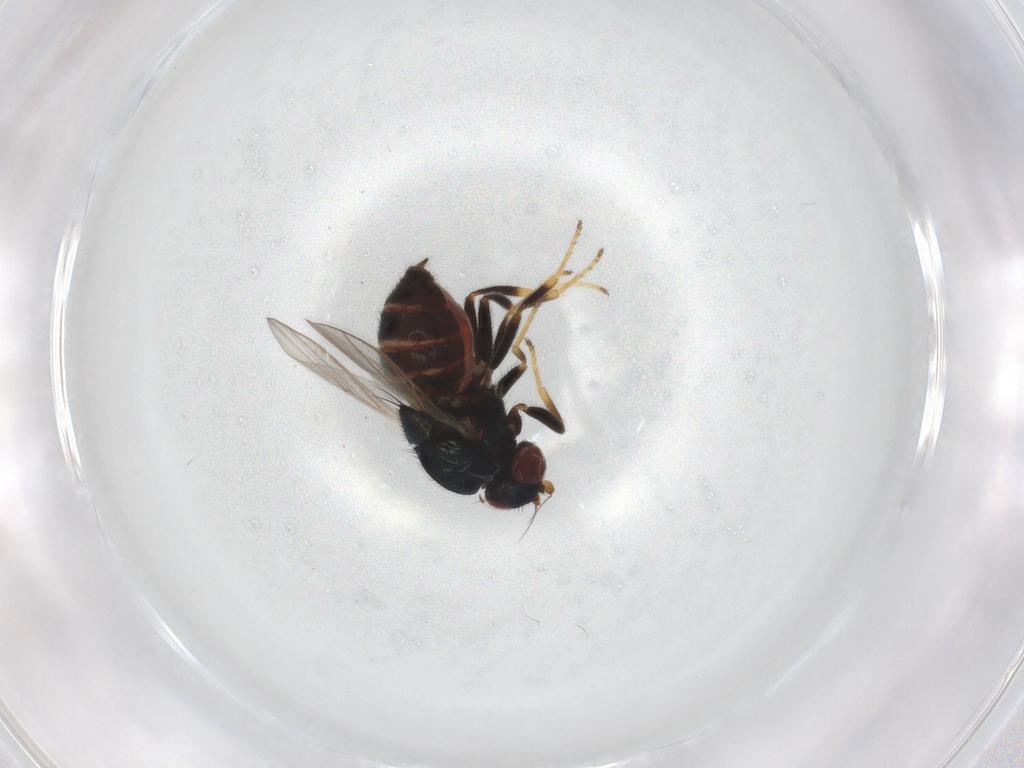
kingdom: Animalia
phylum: Arthropoda
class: Insecta
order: Diptera
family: Chloropidae
